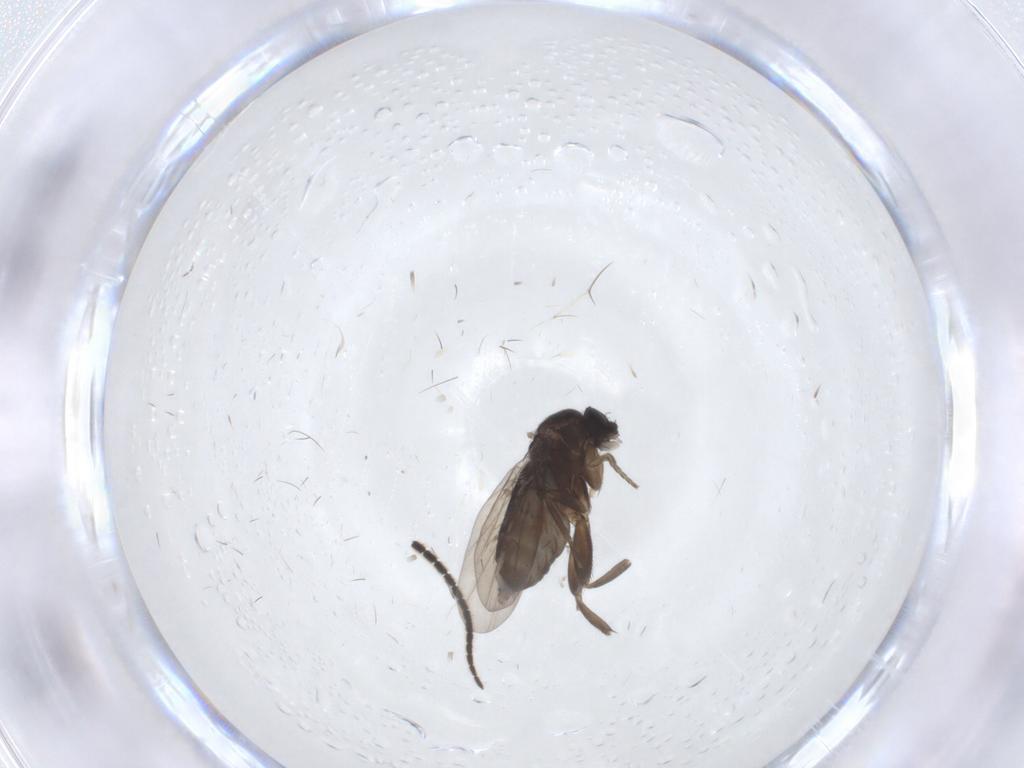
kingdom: Animalia
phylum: Arthropoda
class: Insecta
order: Diptera
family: Phoridae
